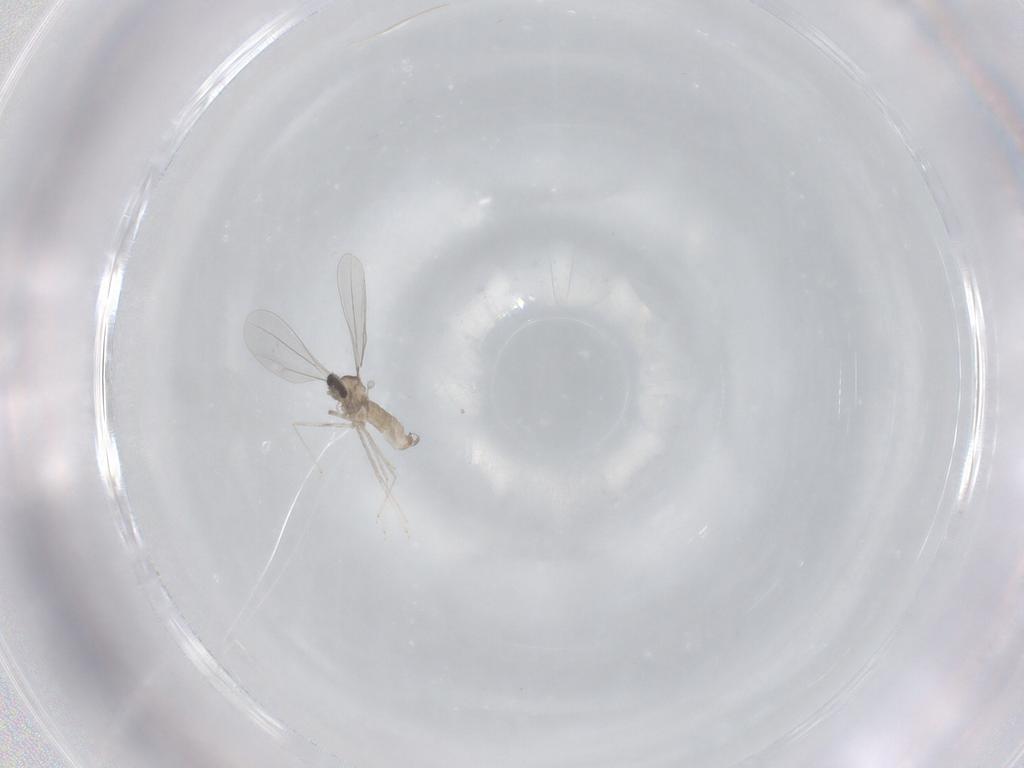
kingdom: Animalia
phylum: Arthropoda
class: Insecta
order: Diptera
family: Cecidomyiidae
